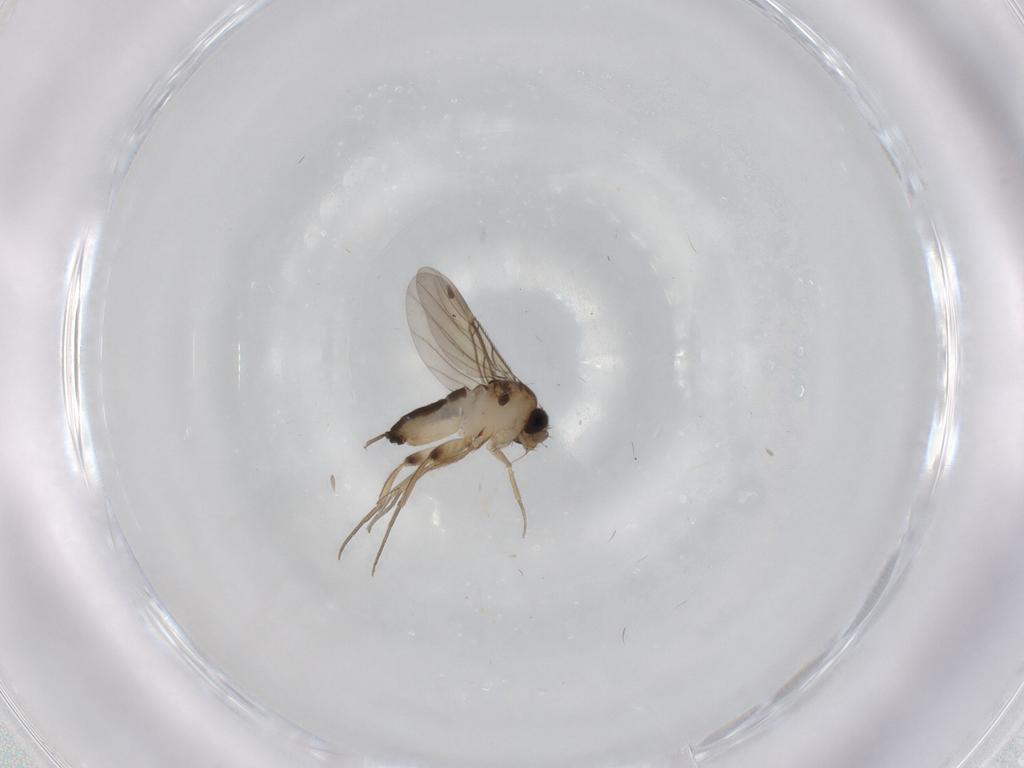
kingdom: Animalia
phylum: Arthropoda
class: Insecta
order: Diptera
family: Phoridae
